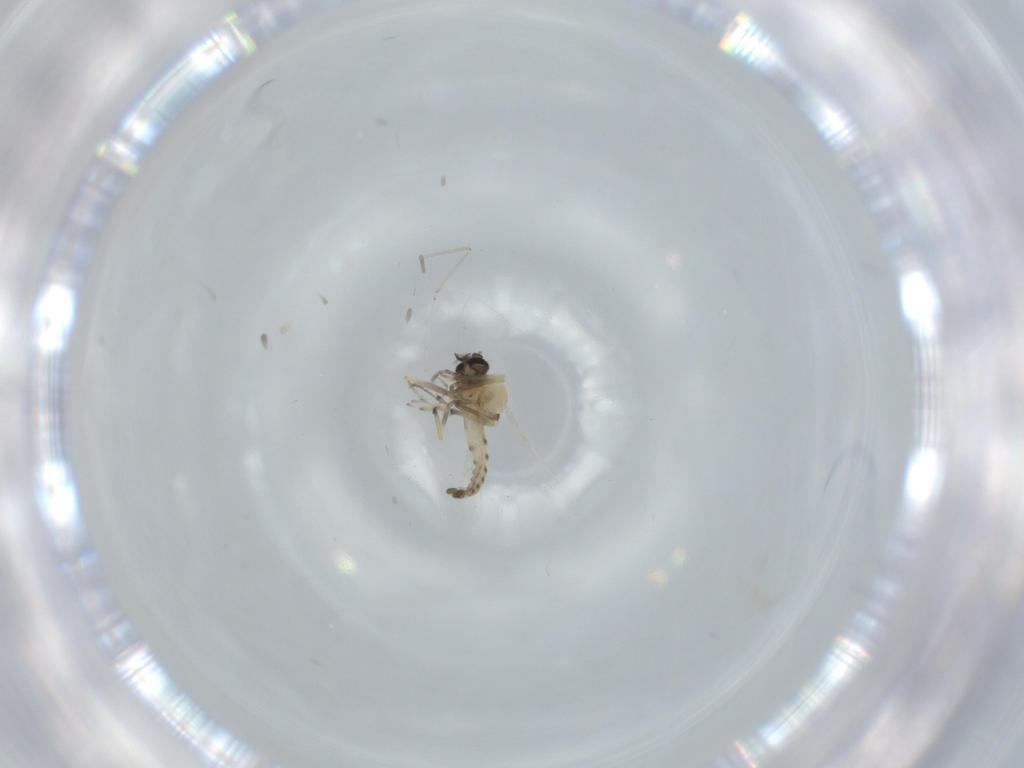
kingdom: Animalia
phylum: Arthropoda
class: Insecta
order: Diptera
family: Cecidomyiidae
